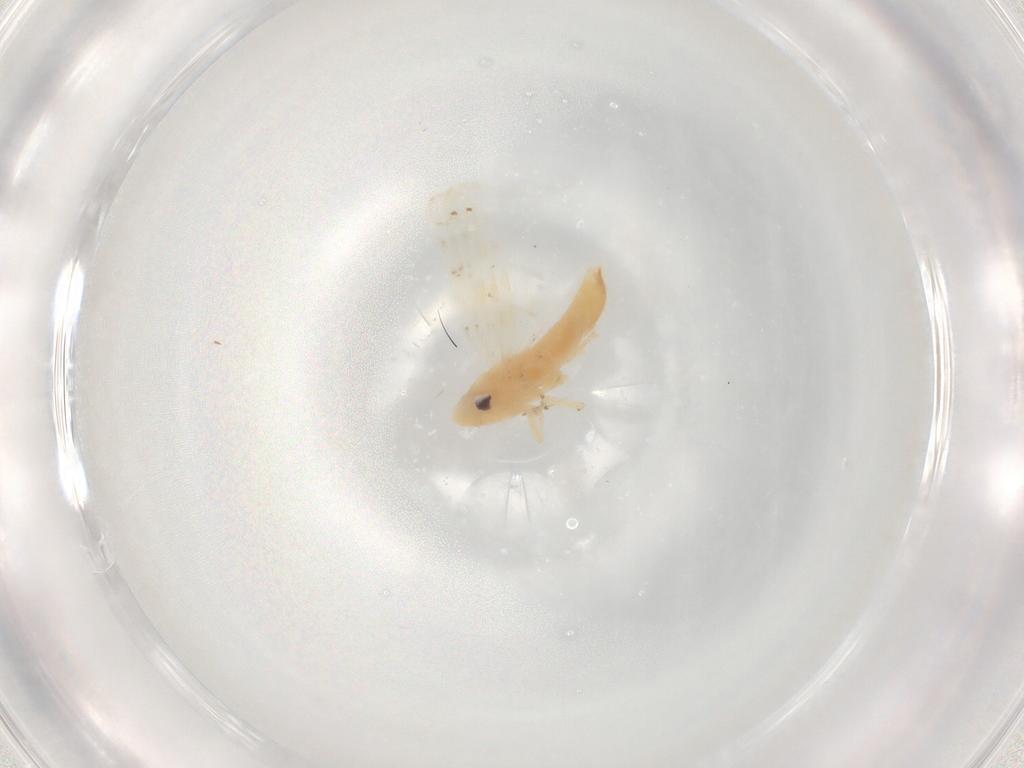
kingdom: Animalia
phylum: Arthropoda
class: Insecta
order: Hemiptera
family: Cicadellidae
